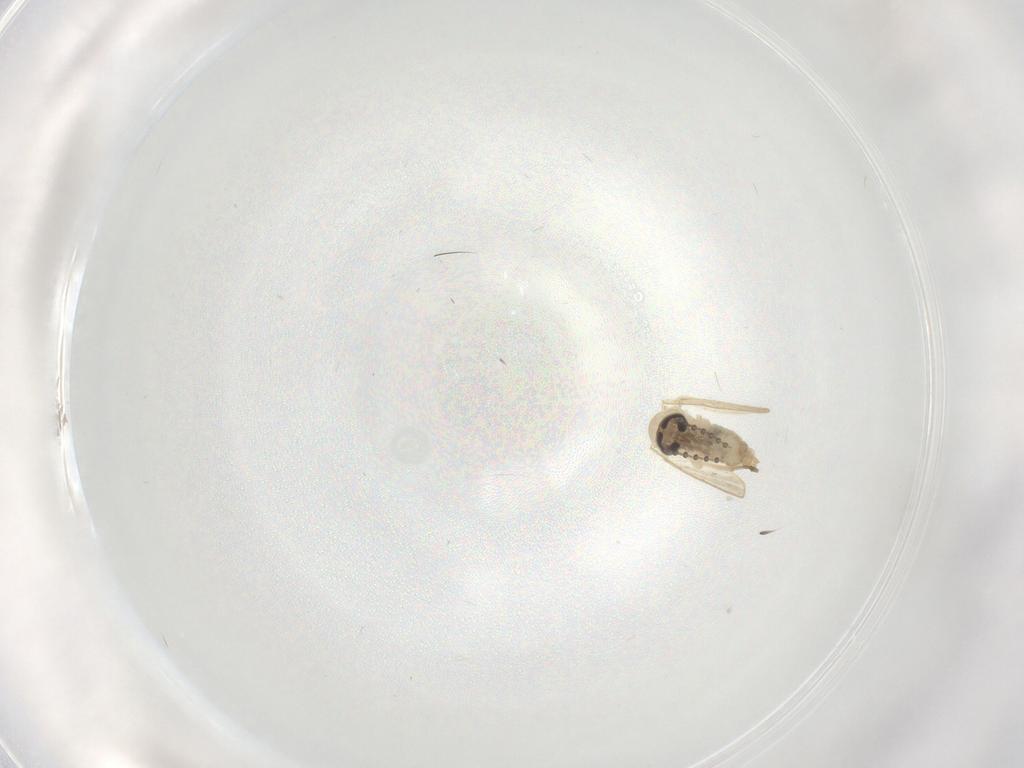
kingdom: Animalia
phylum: Arthropoda
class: Insecta
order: Diptera
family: Psychodidae
